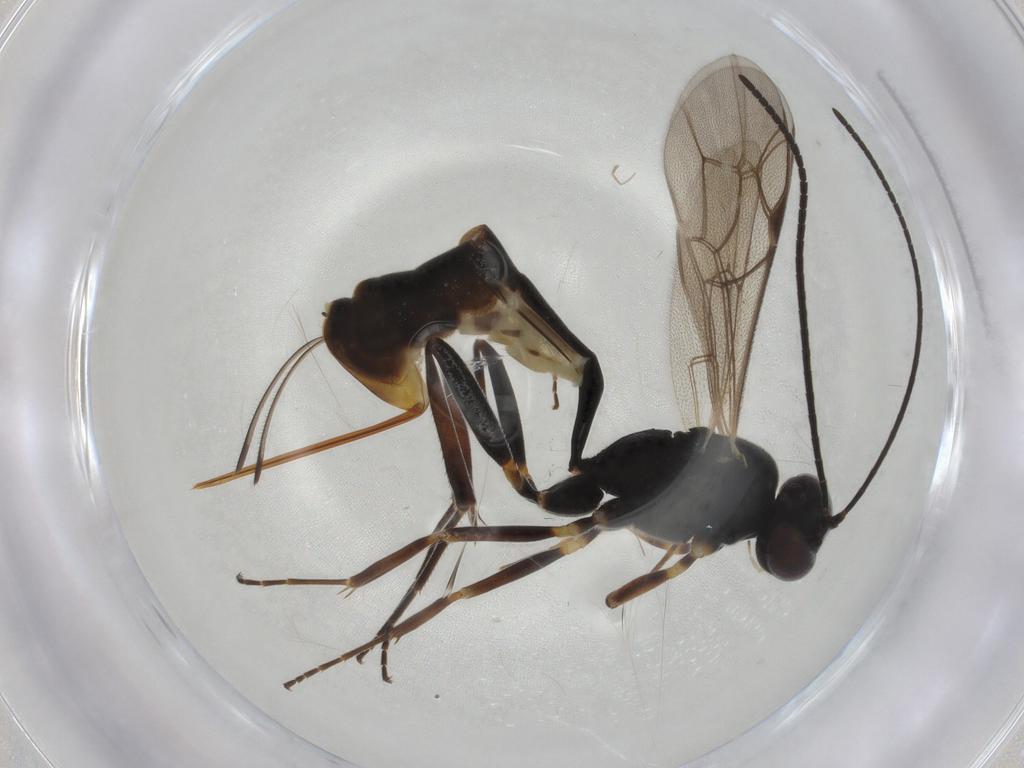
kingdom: Animalia
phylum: Arthropoda
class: Insecta
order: Hymenoptera
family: Ichneumonidae
